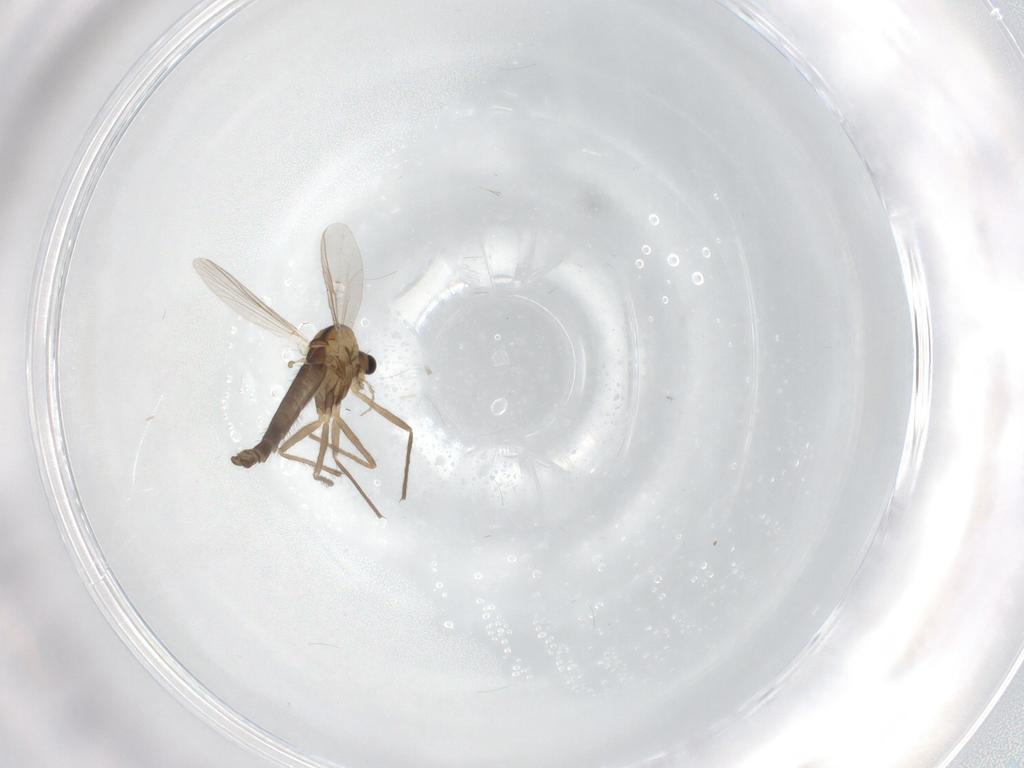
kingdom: Animalia
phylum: Arthropoda
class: Insecta
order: Diptera
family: Chironomidae
